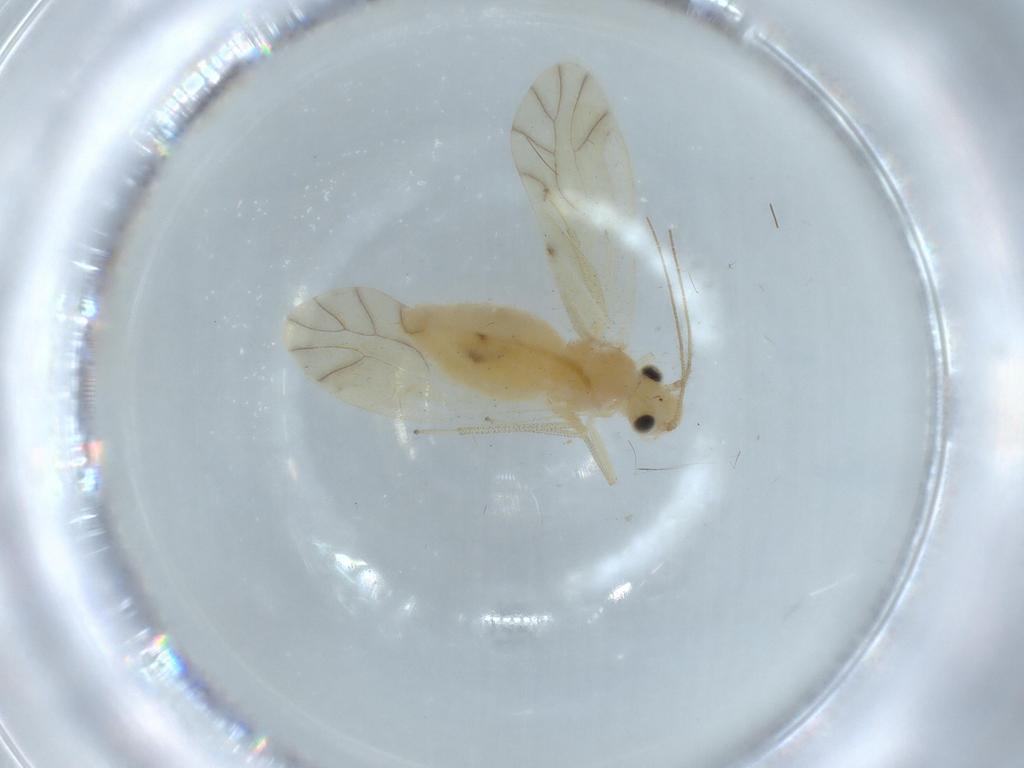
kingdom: Animalia
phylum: Arthropoda
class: Insecta
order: Psocodea
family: Caeciliusidae
